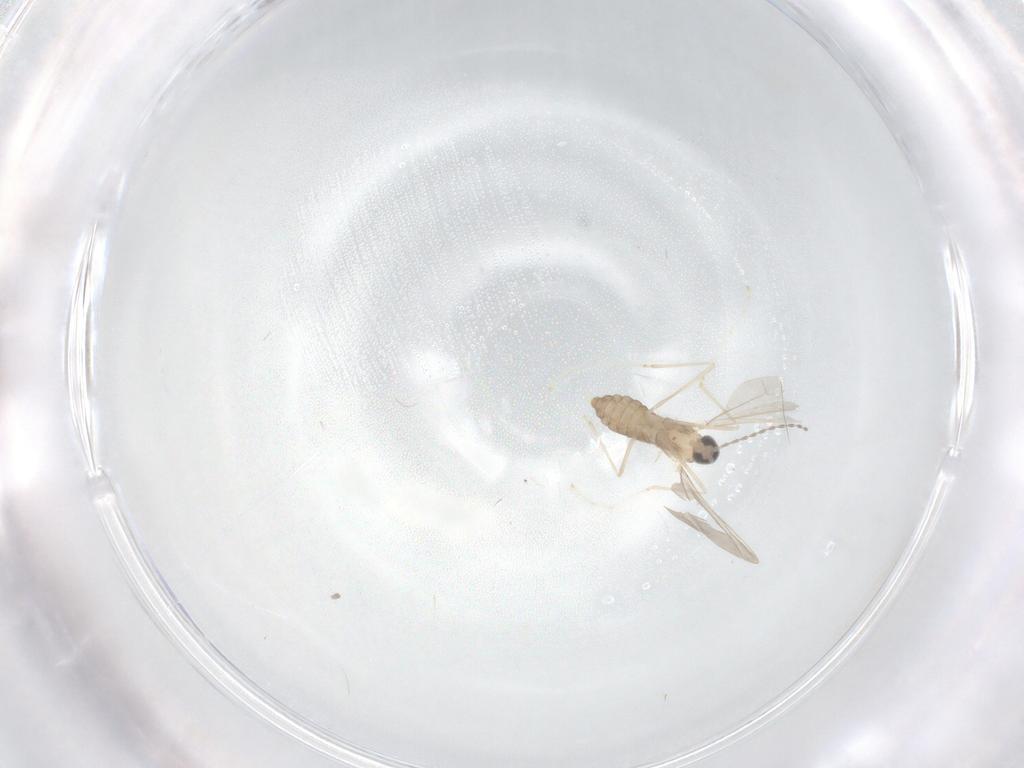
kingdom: Animalia
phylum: Arthropoda
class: Insecta
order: Diptera
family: Cecidomyiidae
